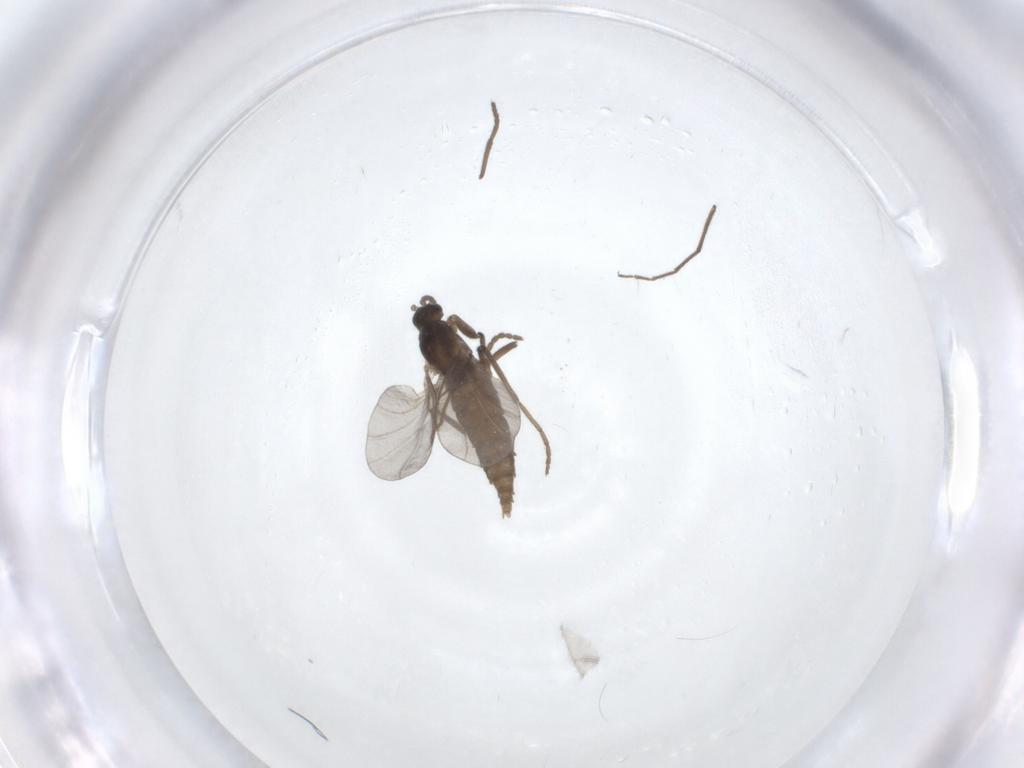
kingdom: Animalia
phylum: Arthropoda
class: Insecta
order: Diptera
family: Cecidomyiidae
